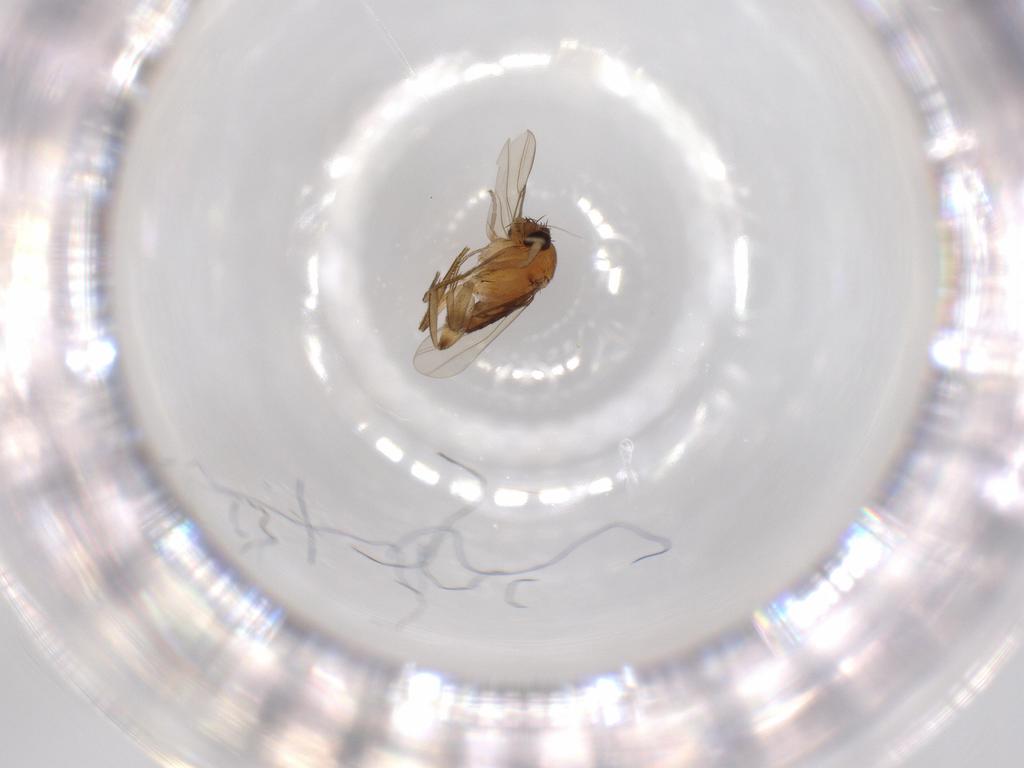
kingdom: Animalia
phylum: Arthropoda
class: Insecta
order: Diptera
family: Phoridae
